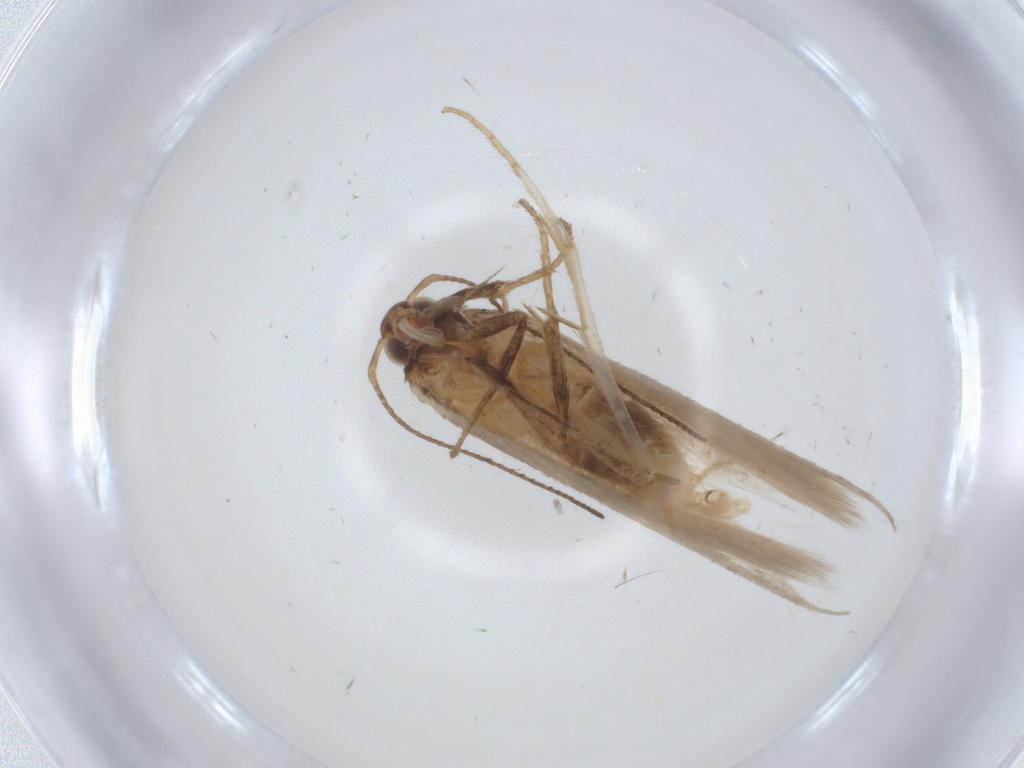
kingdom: Animalia
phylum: Arthropoda
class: Insecta
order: Lepidoptera
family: Gelechiidae
